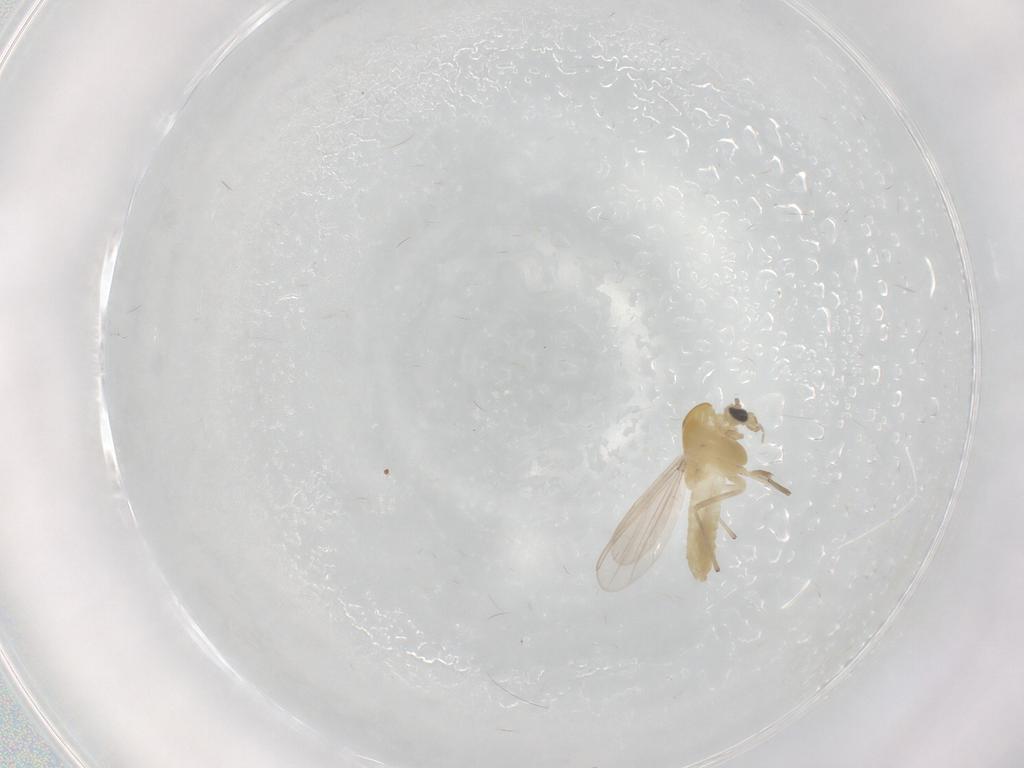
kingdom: Animalia
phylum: Arthropoda
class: Insecta
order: Diptera
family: Chironomidae
